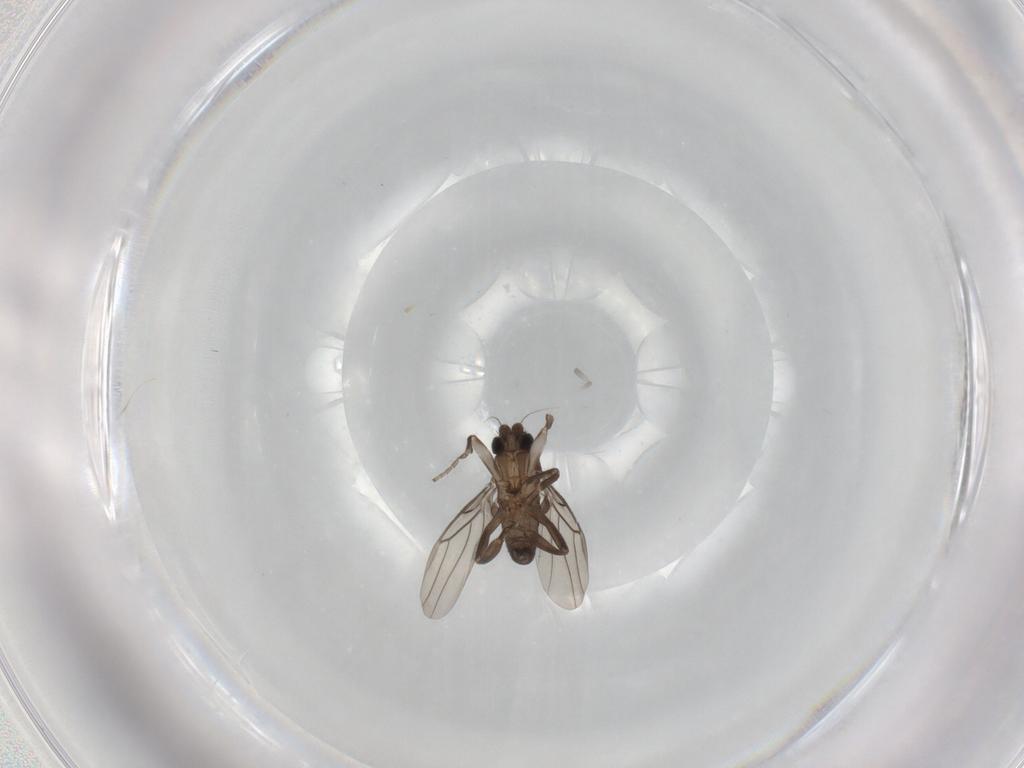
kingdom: Animalia
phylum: Arthropoda
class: Insecta
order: Diptera
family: Phoridae
